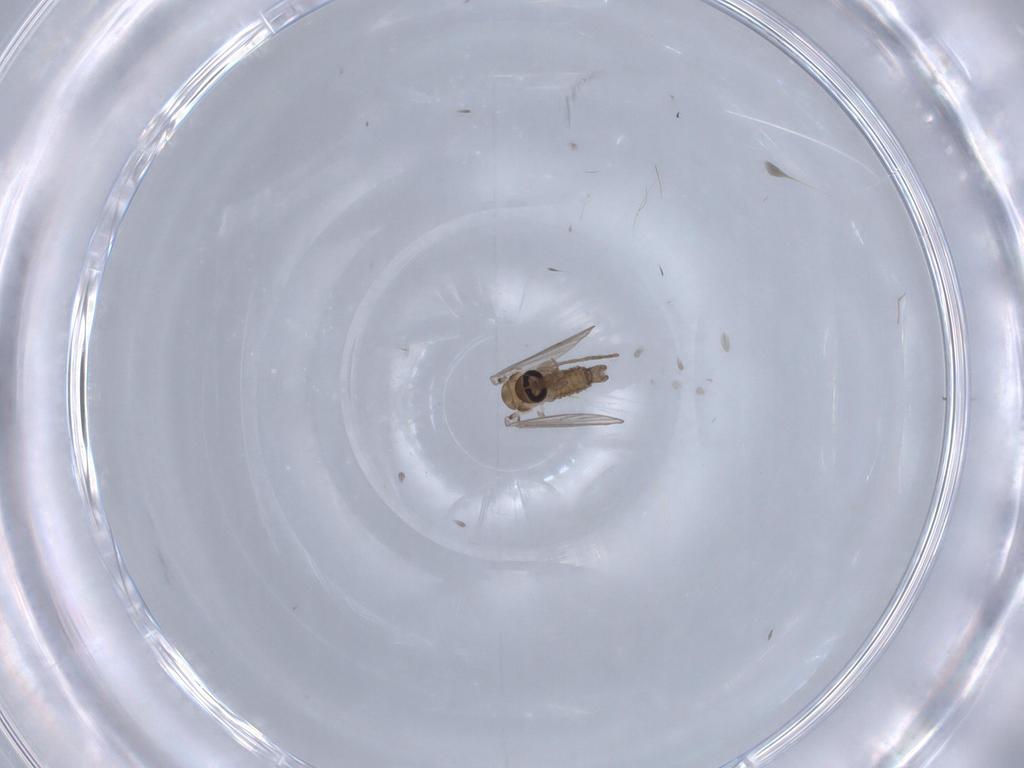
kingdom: Animalia
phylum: Arthropoda
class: Insecta
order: Diptera
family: Psychodidae
